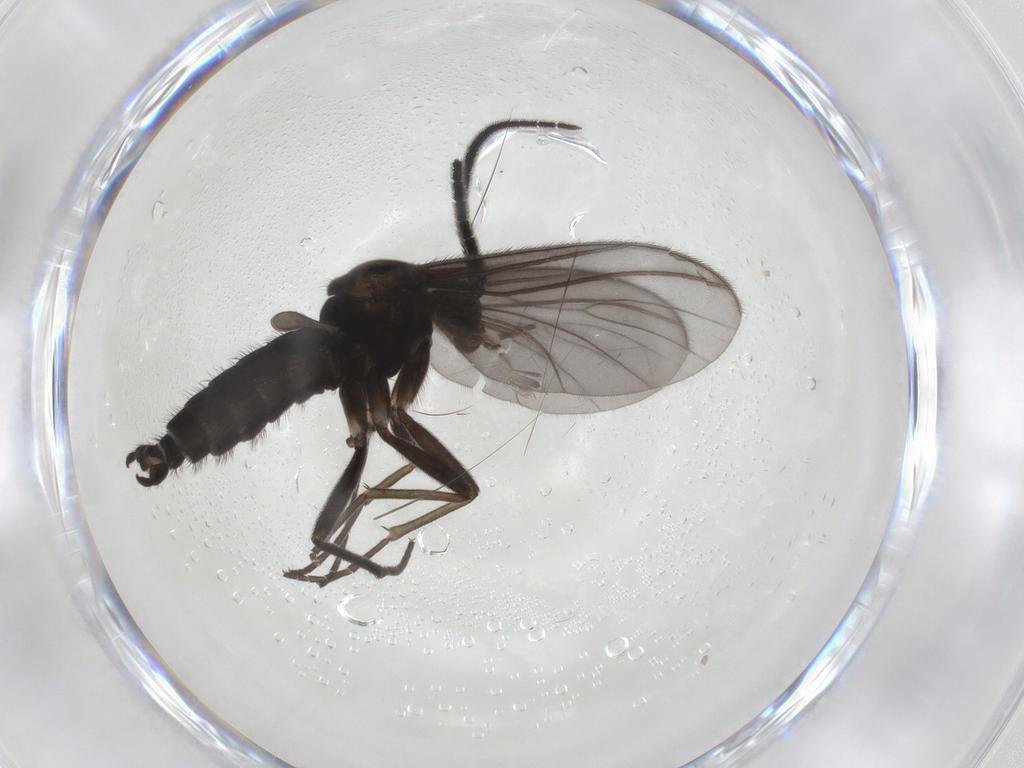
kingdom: Animalia
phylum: Arthropoda
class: Insecta
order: Diptera
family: Sciaridae
